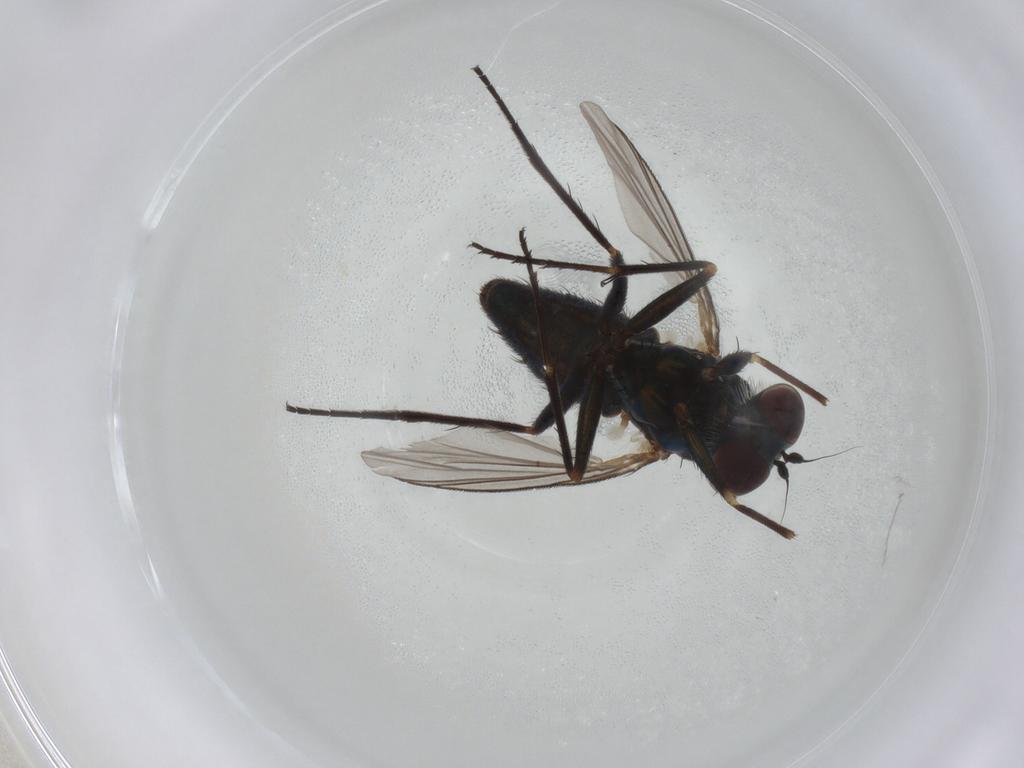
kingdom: Animalia
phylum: Arthropoda
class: Insecta
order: Diptera
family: Dolichopodidae
